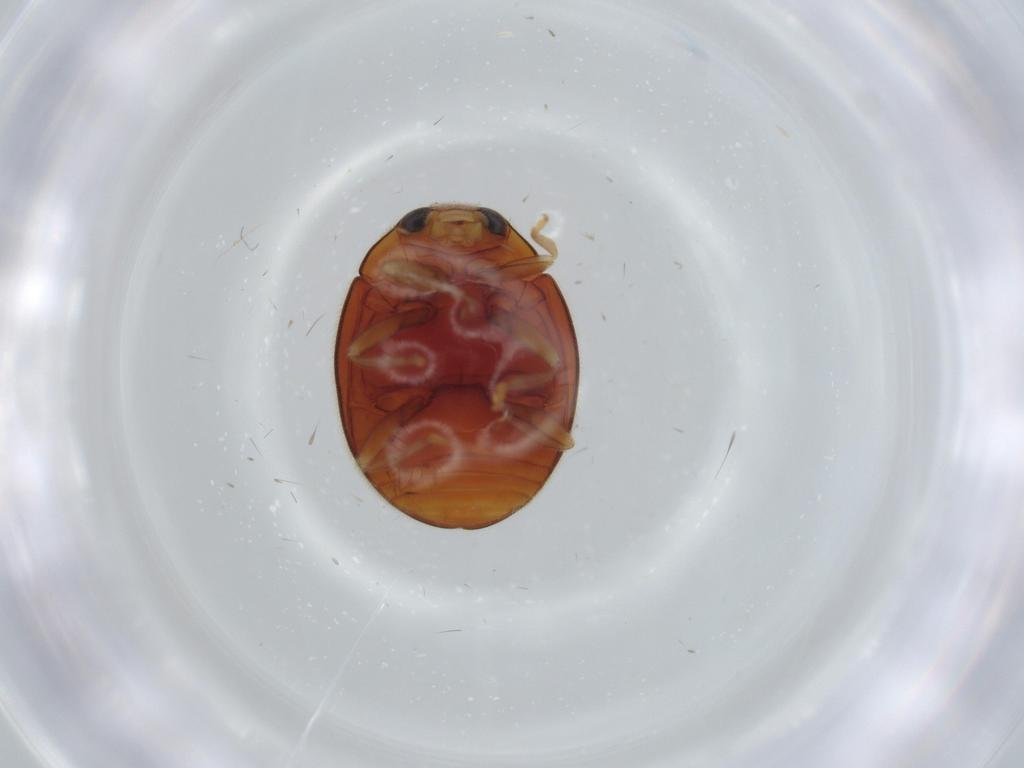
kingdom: Animalia
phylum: Arthropoda
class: Insecta
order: Coleoptera
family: Coccinellidae
